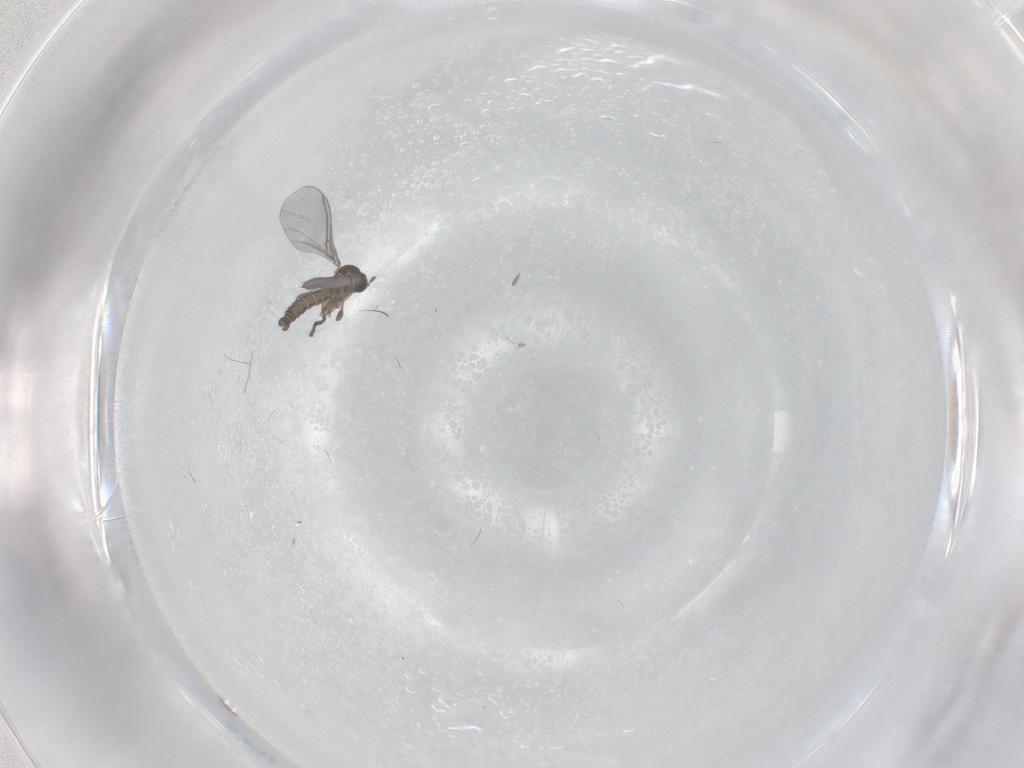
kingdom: Animalia
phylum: Arthropoda
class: Insecta
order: Diptera
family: Sciaridae
